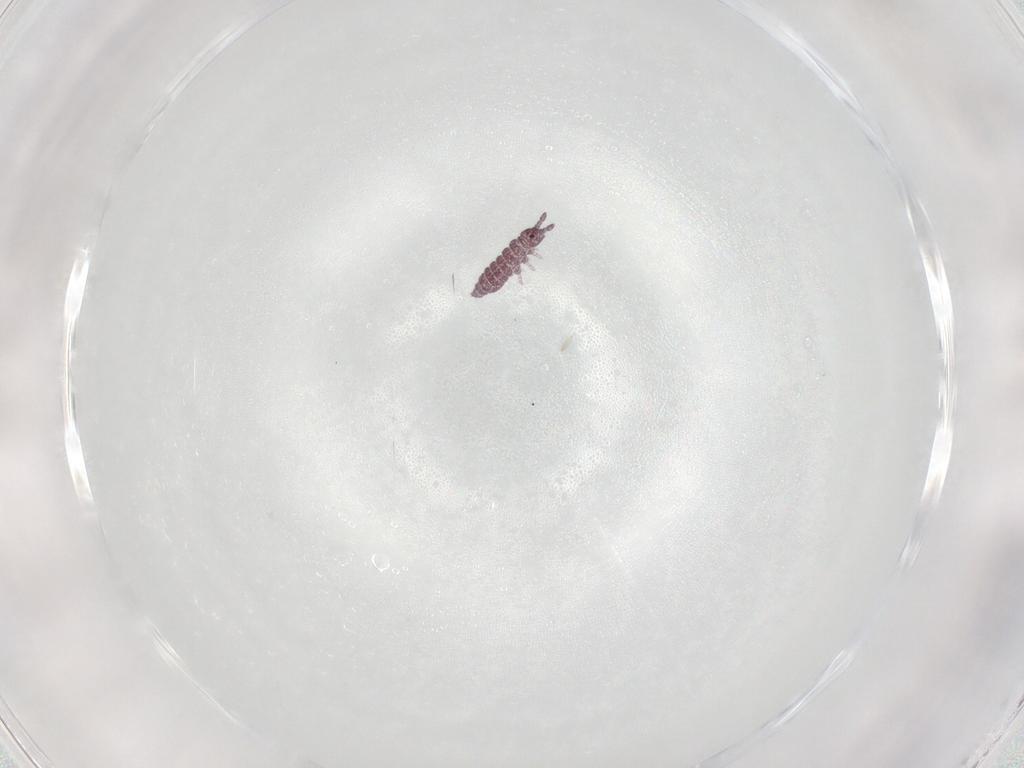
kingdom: Animalia
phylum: Arthropoda
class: Collembola
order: Poduromorpha
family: Hypogastruridae
